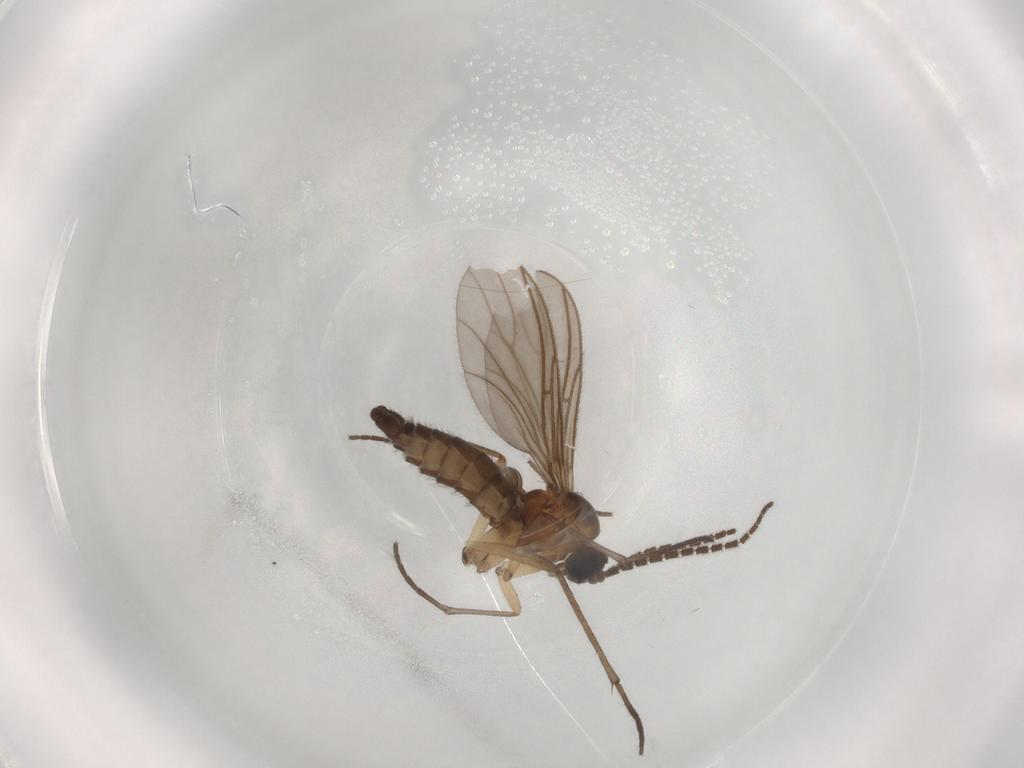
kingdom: Animalia
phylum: Arthropoda
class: Insecta
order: Diptera
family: Sciaridae
